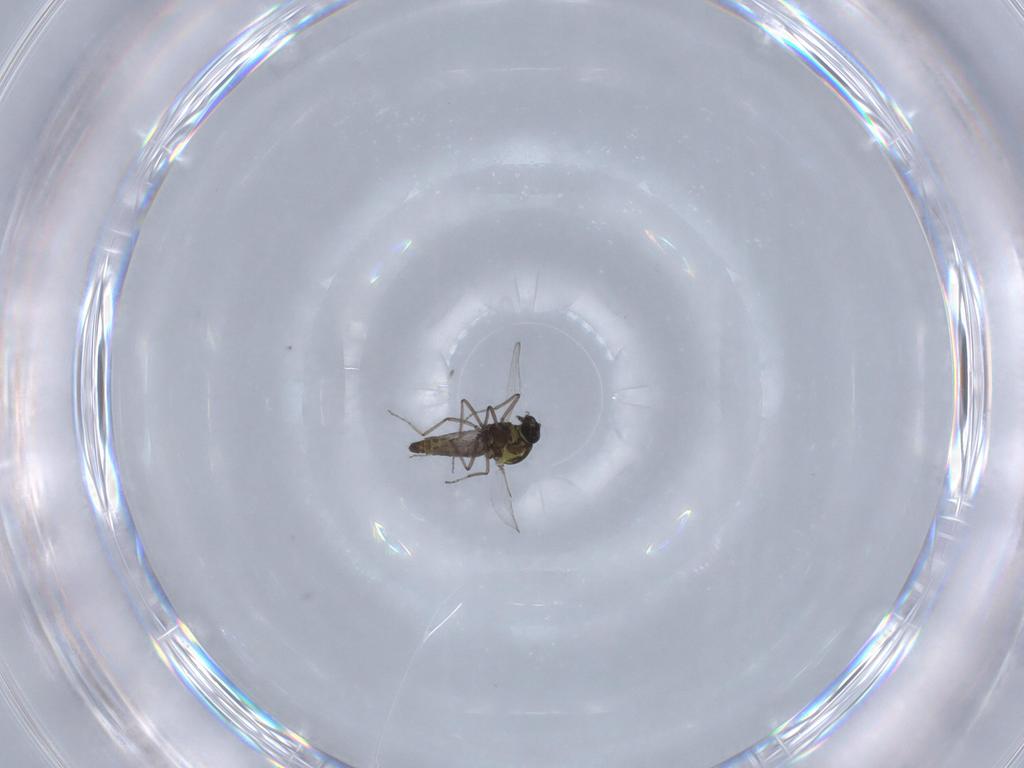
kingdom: Animalia
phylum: Arthropoda
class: Insecta
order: Diptera
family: Ceratopogonidae
